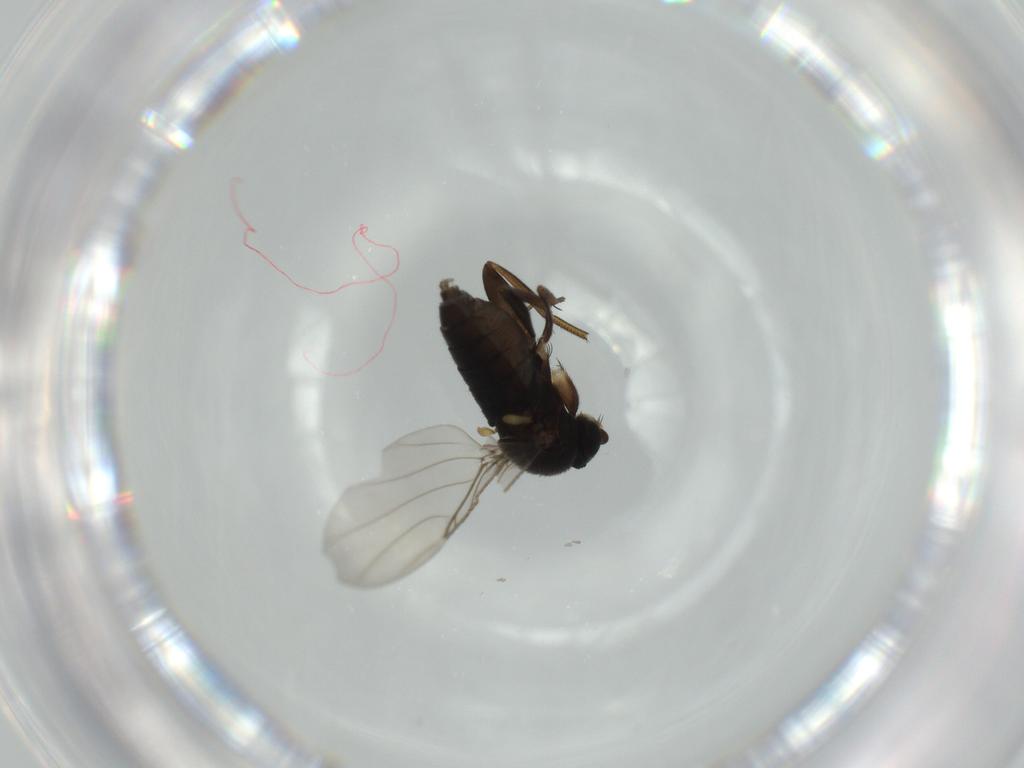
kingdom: Animalia
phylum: Arthropoda
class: Insecta
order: Diptera
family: Phoridae
